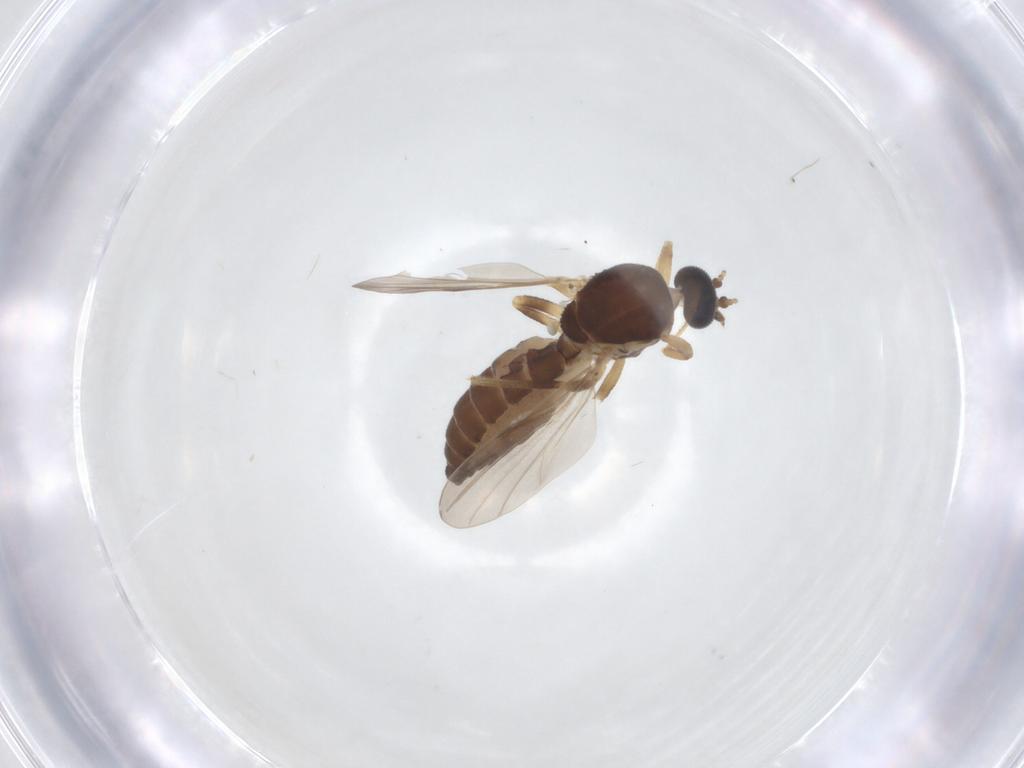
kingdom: Animalia
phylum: Arthropoda
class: Insecta
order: Diptera
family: Ceratopogonidae
